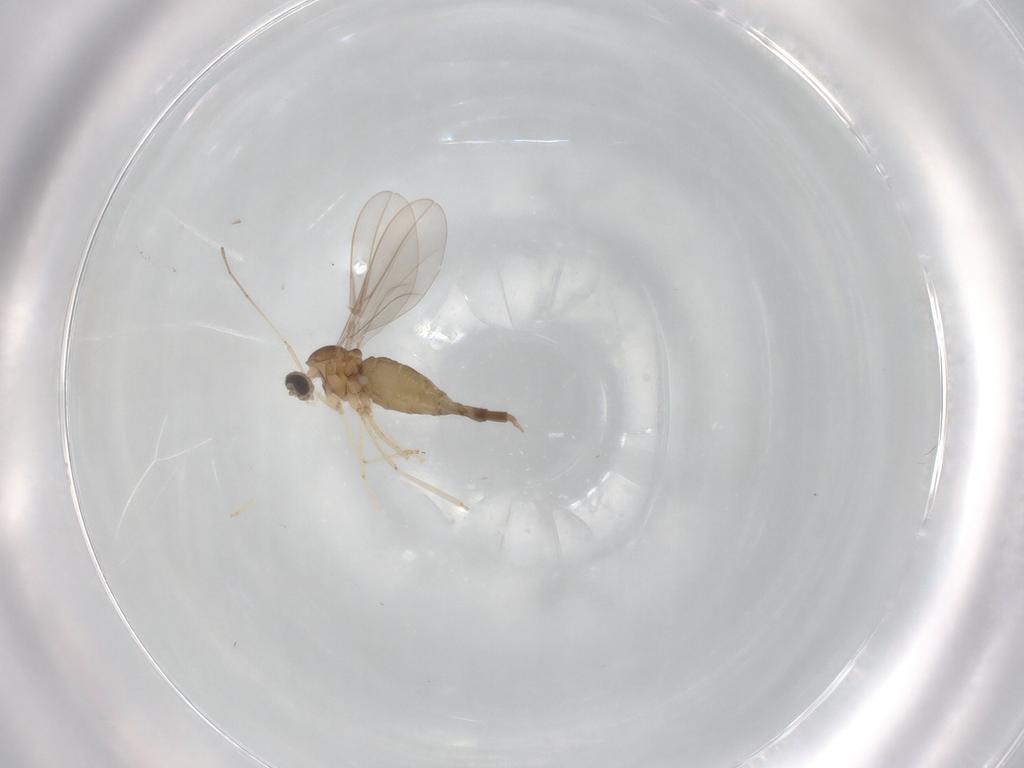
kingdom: Animalia
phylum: Arthropoda
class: Insecta
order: Diptera
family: Cecidomyiidae
